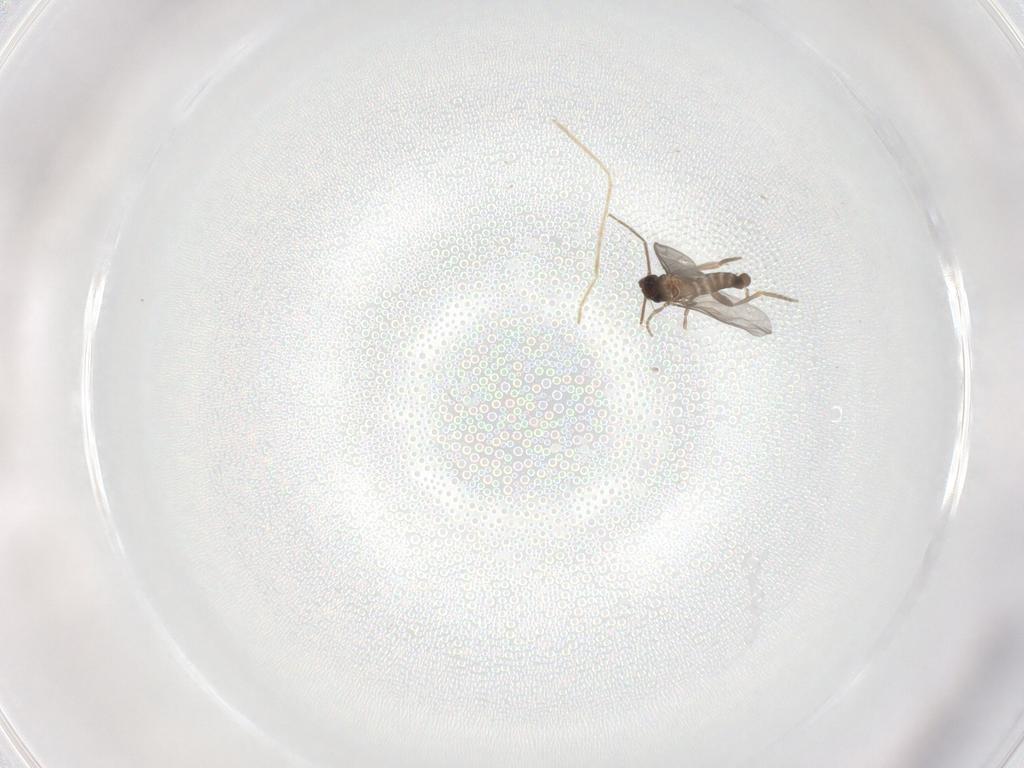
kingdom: Animalia
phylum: Arthropoda
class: Insecta
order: Diptera
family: Chironomidae
